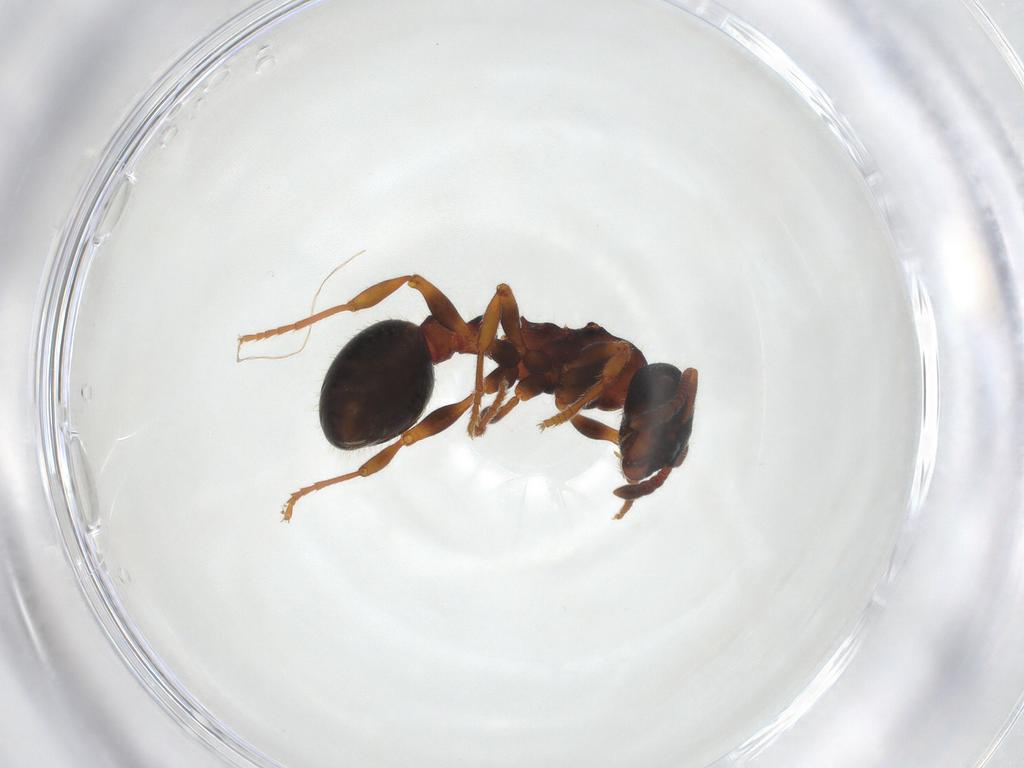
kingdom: Animalia
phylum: Arthropoda
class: Insecta
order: Hymenoptera
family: Formicidae
